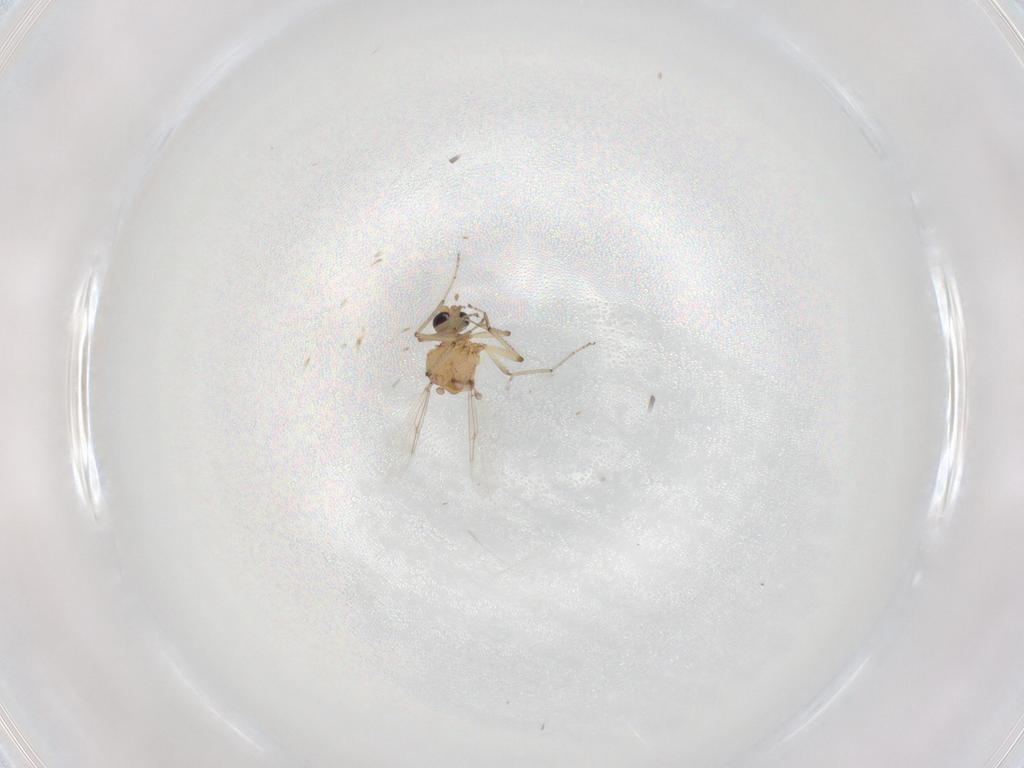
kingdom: Animalia
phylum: Arthropoda
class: Insecta
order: Diptera
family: Ceratopogonidae
